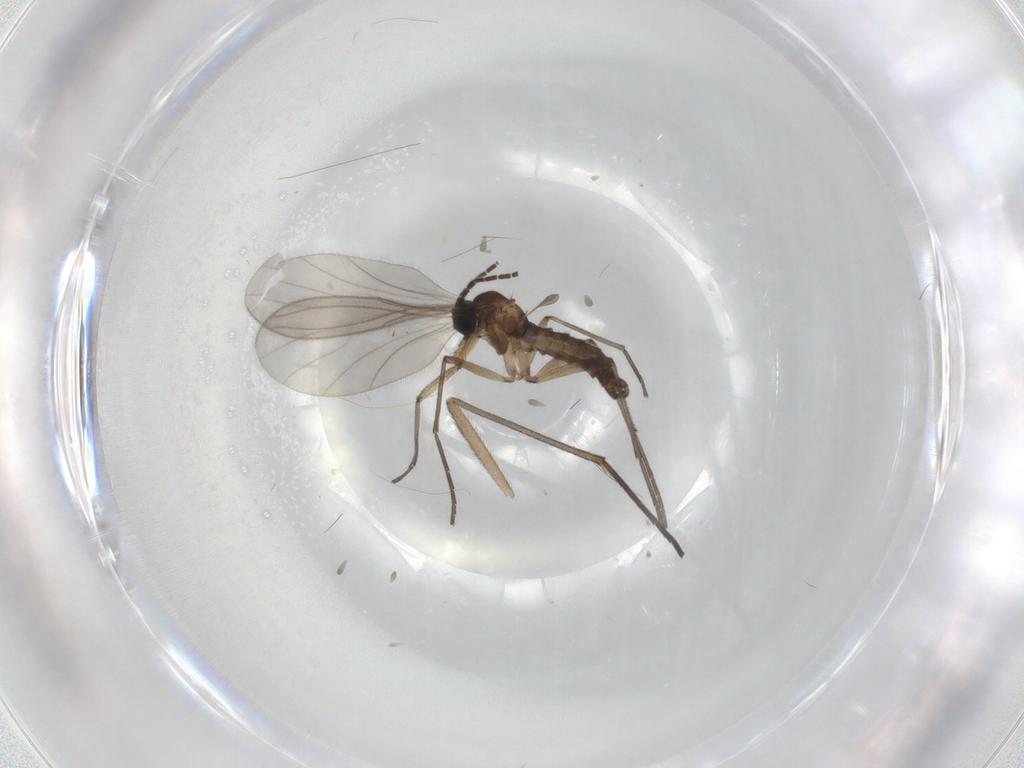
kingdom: Animalia
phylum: Arthropoda
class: Insecta
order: Diptera
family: Sciaridae
